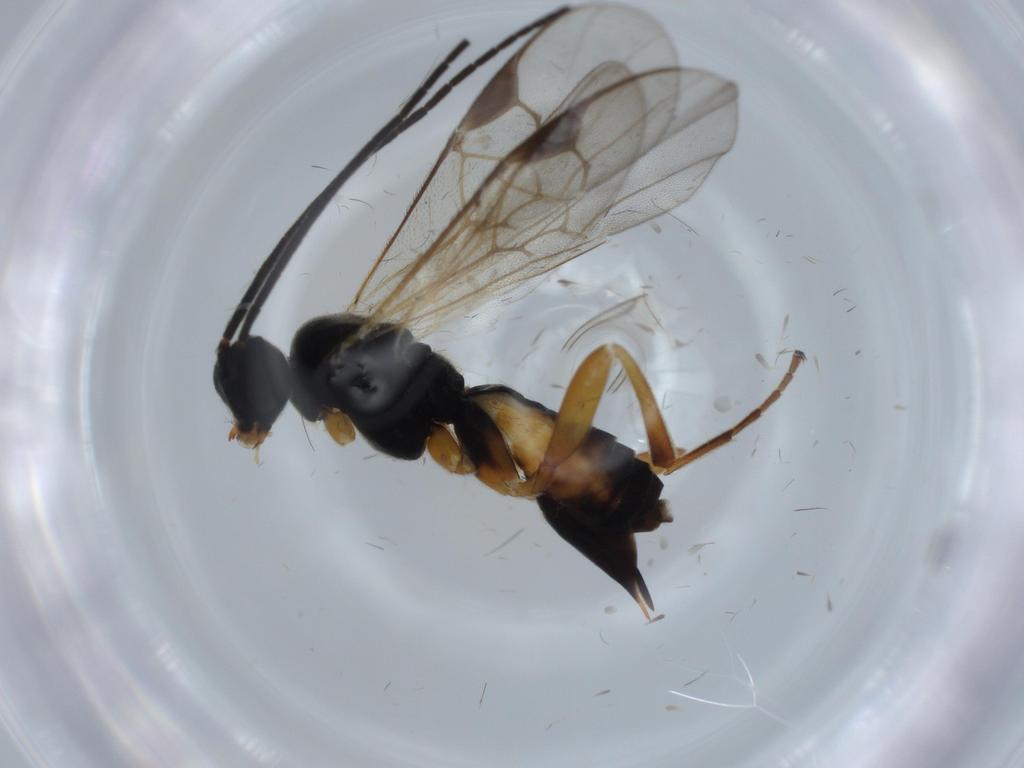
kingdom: Animalia
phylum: Arthropoda
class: Insecta
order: Hymenoptera
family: Braconidae
